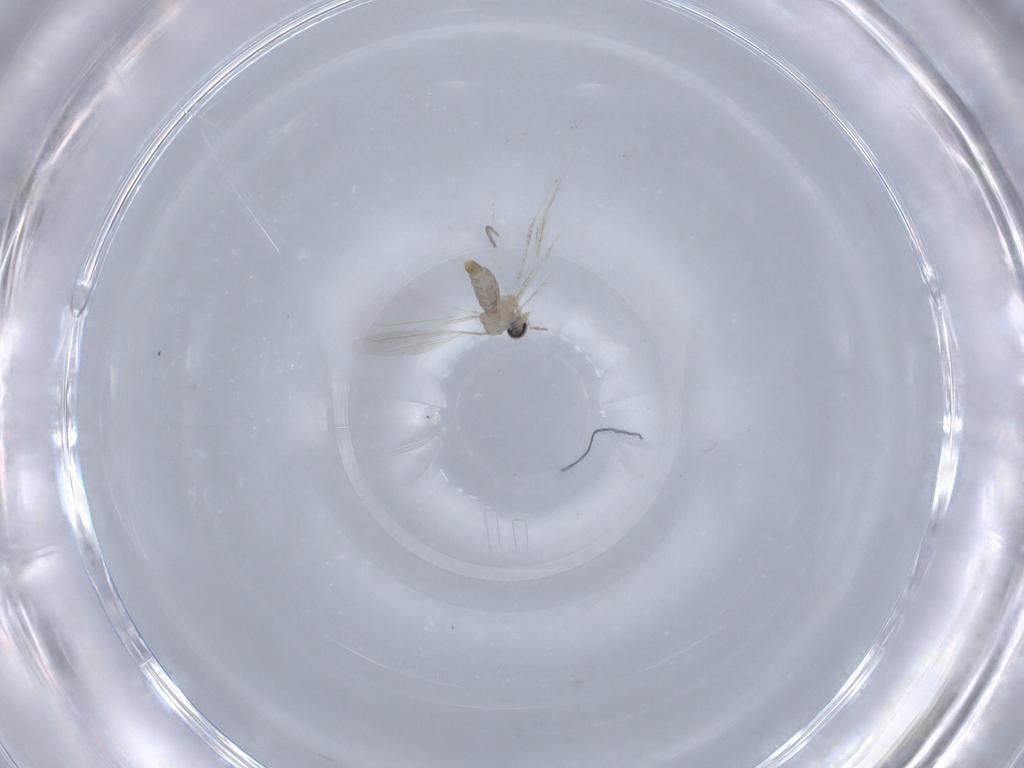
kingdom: Animalia
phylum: Arthropoda
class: Insecta
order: Diptera
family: Cecidomyiidae
